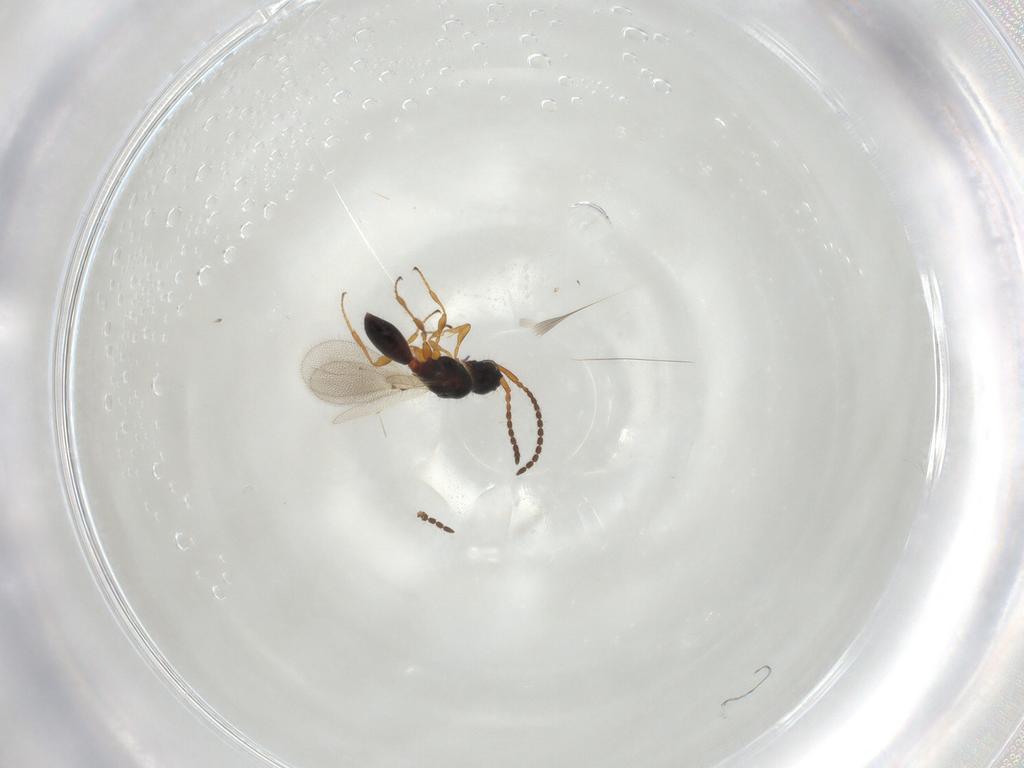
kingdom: Animalia
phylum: Arthropoda
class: Insecta
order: Hymenoptera
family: Diapriidae
